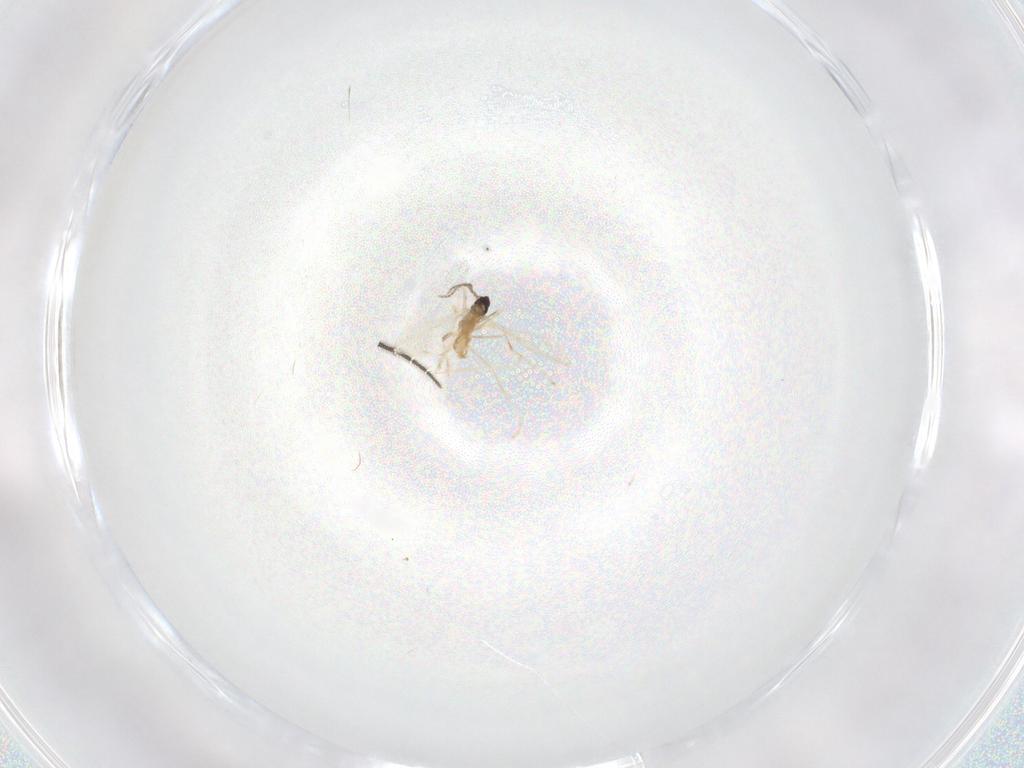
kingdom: Animalia
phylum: Arthropoda
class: Insecta
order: Diptera
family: Cecidomyiidae
